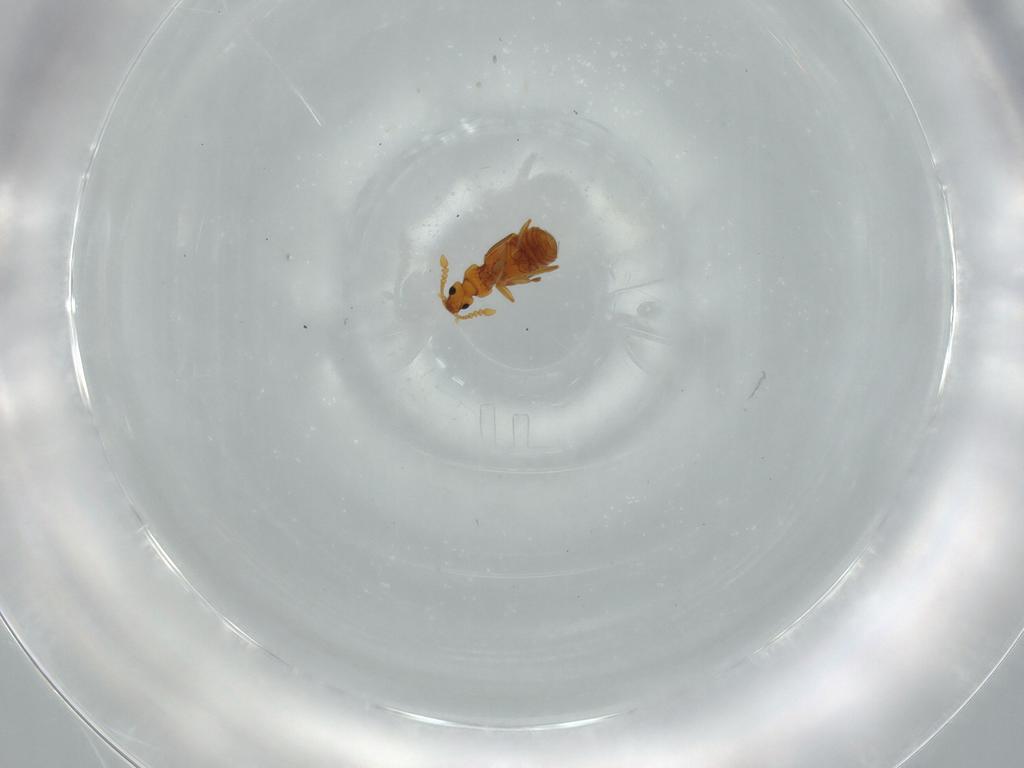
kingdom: Animalia
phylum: Arthropoda
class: Insecta
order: Coleoptera
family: Staphylinidae
